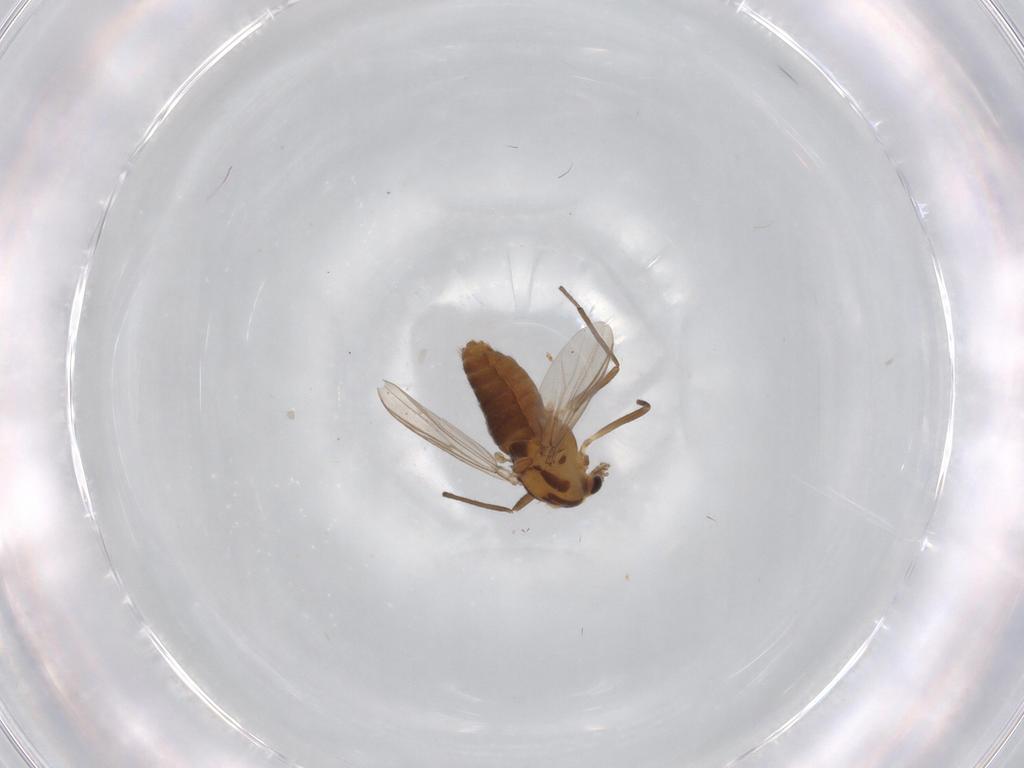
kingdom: Animalia
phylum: Arthropoda
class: Insecta
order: Diptera
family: Chironomidae
